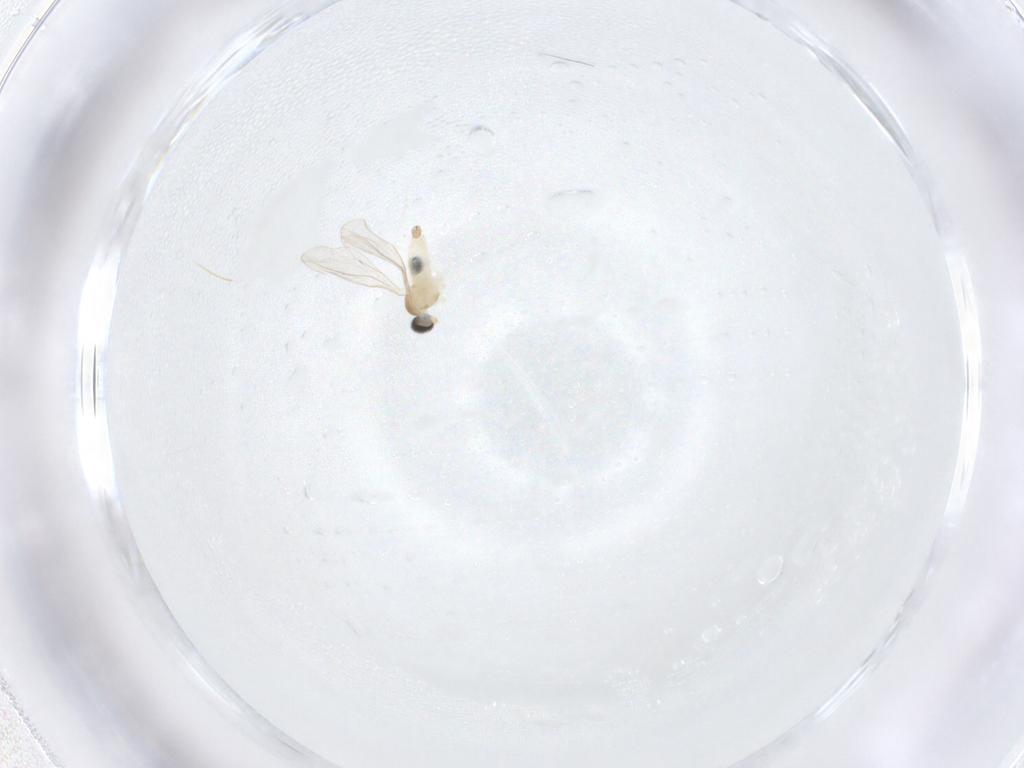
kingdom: Animalia
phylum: Arthropoda
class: Insecta
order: Diptera
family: Cecidomyiidae
